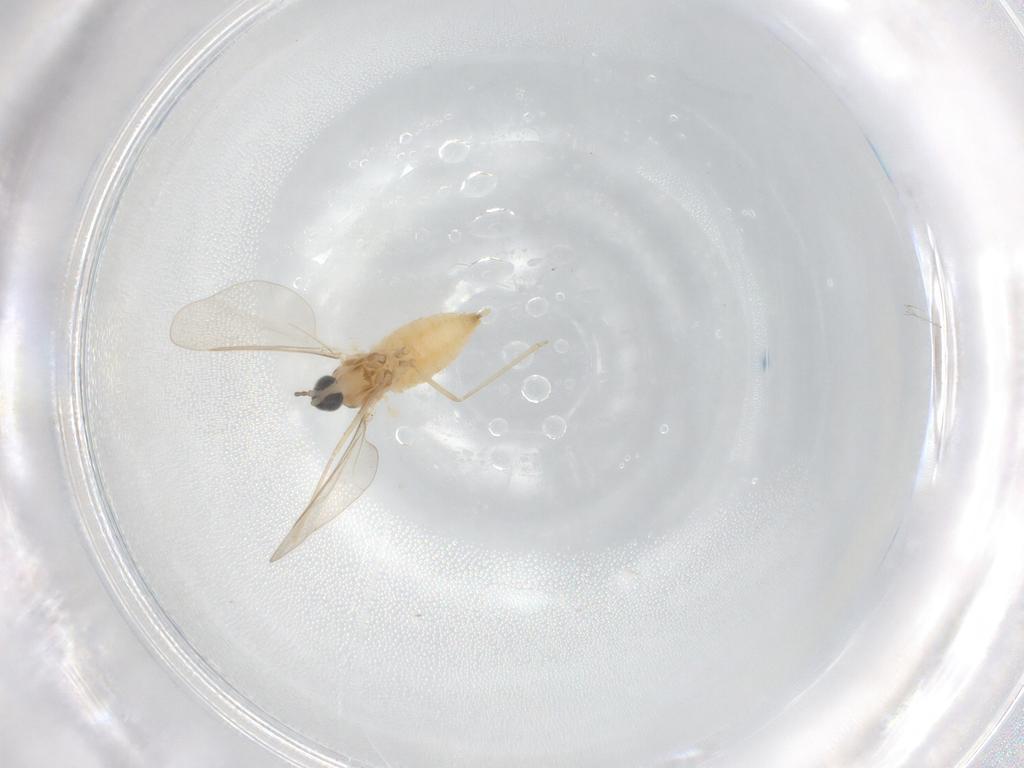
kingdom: Animalia
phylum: Arthropoda
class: Insecta
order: Diptera
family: Cecidomyiidae
